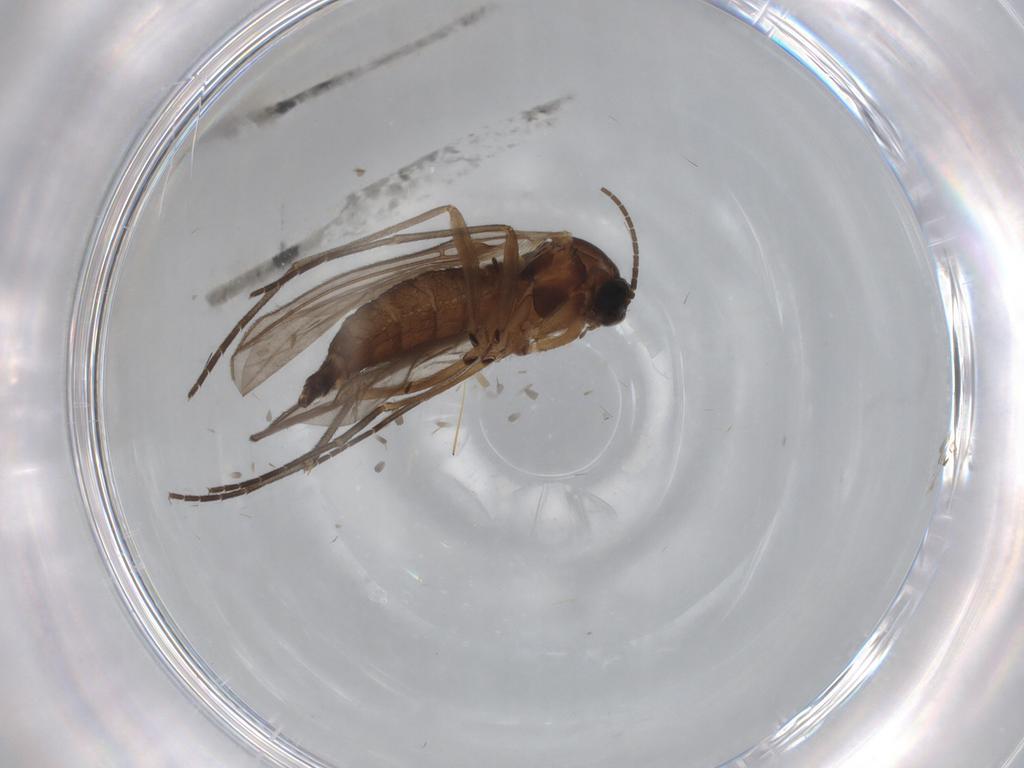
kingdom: Animalia
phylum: Arthropoda
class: Insecta
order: Diptera
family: Sciaridae
